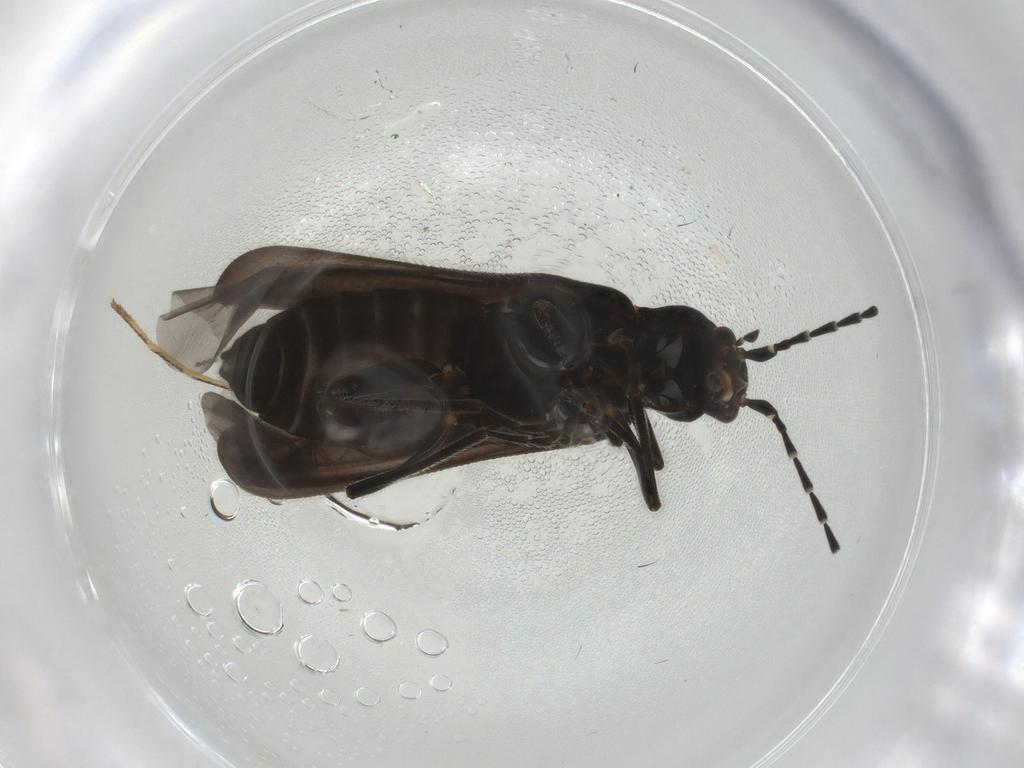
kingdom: Animalia
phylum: Arthropoda
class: Insecta
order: Coleoptera
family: Cantharidae
